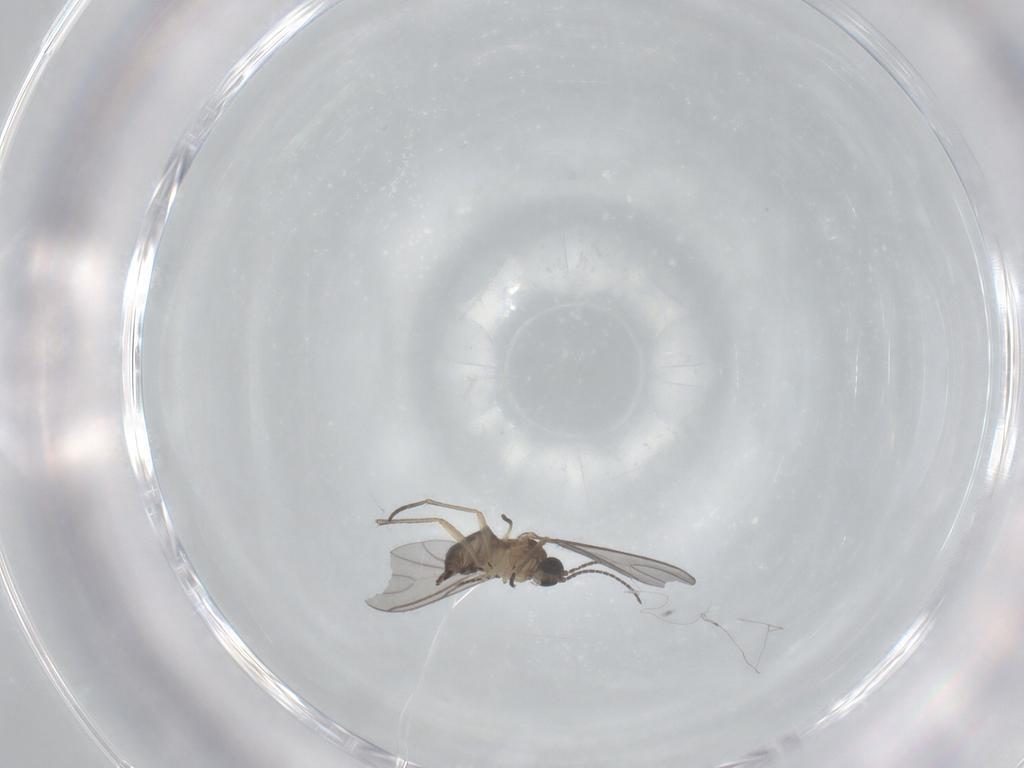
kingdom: Animalia
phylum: Arthropoda
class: Insecta
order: Diptera
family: Sciaridae
